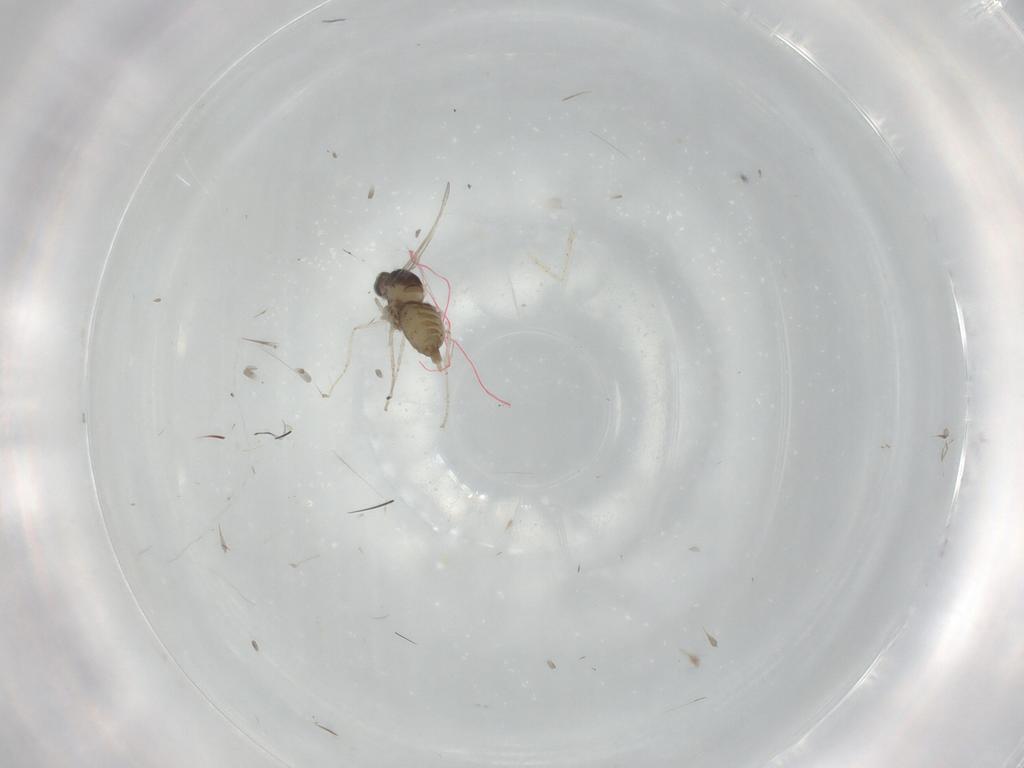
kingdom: Animalia
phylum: Arthropoda
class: Insecta
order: Diptera
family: Cecidomyiidae
